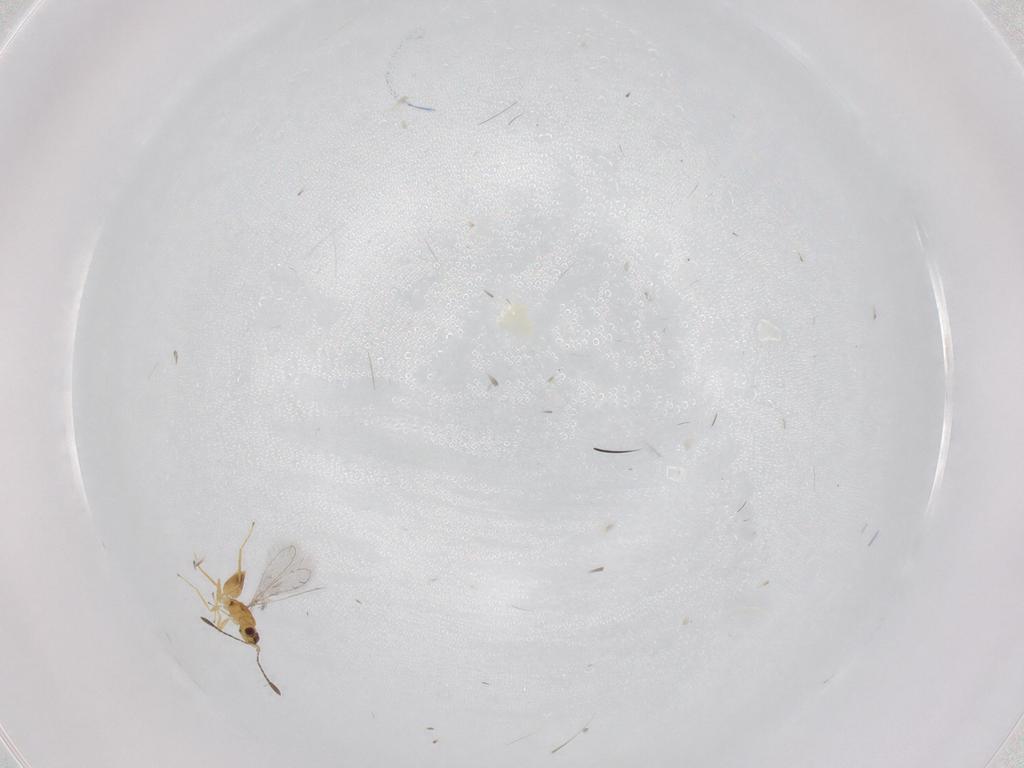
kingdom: Animalia
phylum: Arthropoda
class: Insecta
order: Hymenoptera
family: Mymaridae
